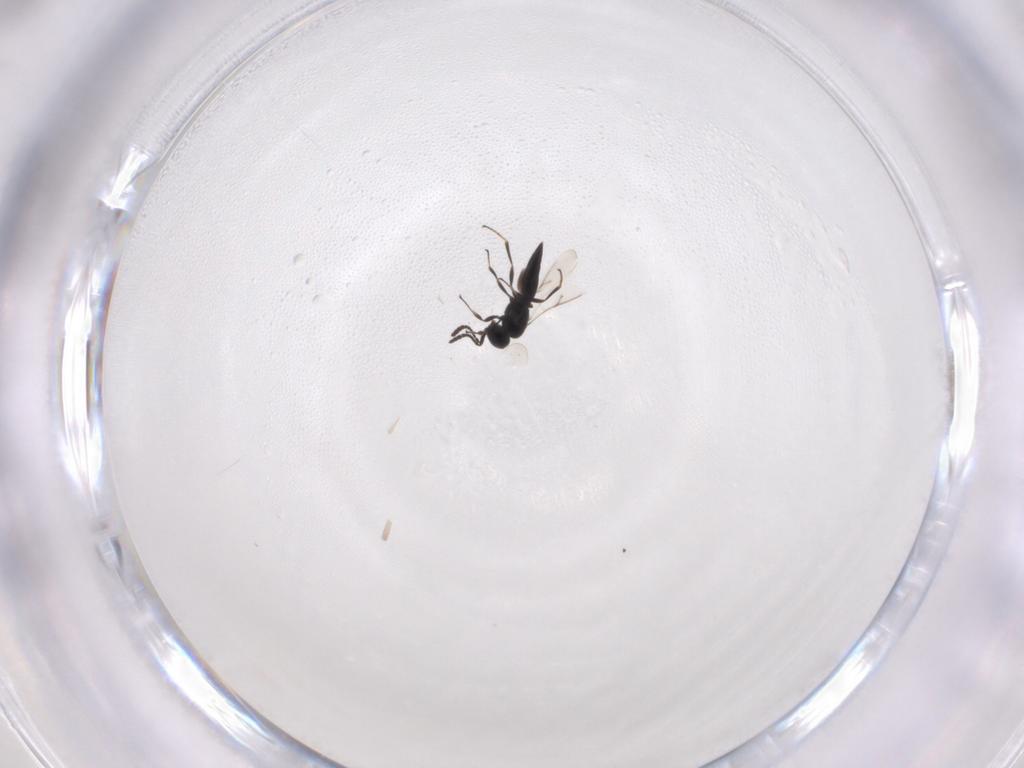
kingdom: Animalia
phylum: Arthropoda
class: Insecta
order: Hymenoptera
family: Scelionidae
